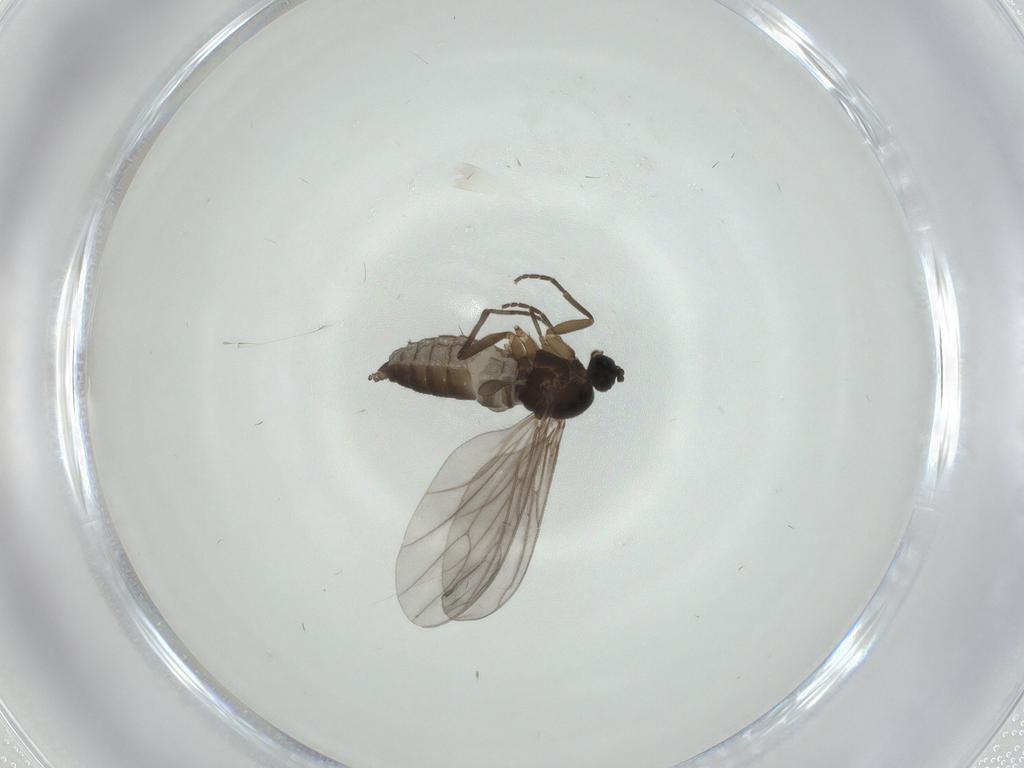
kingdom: Animalia
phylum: Arthropoda
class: Insecta
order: Diptera
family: Sciaridae
